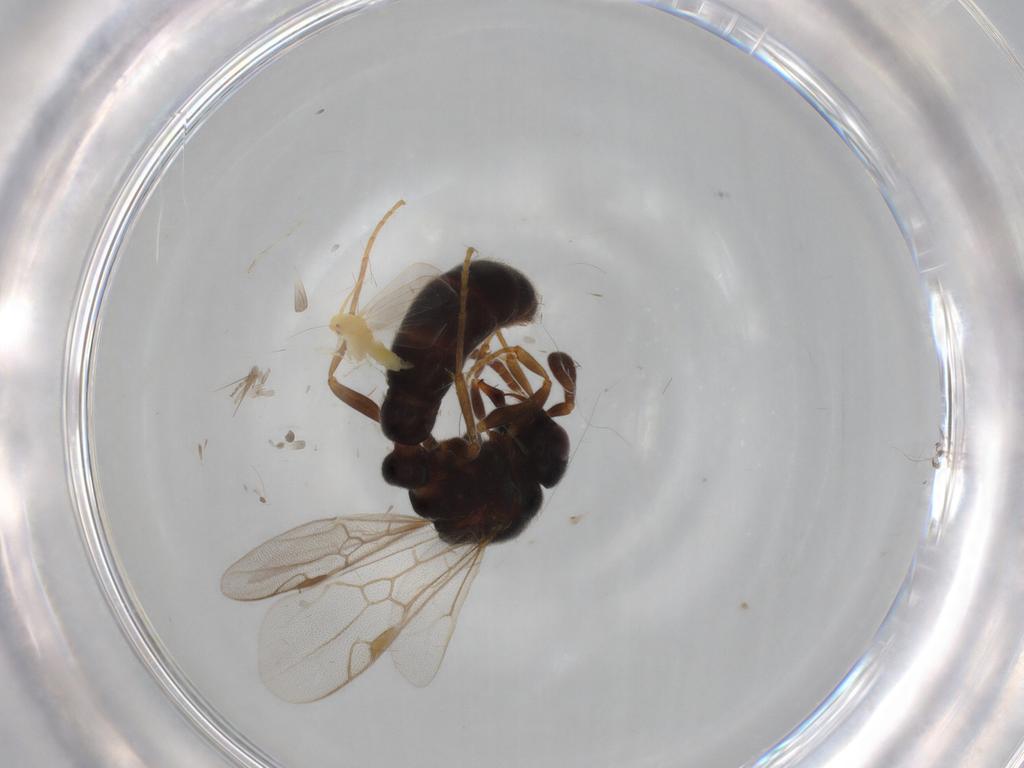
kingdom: Animalia
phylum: Arthropoda
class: Insecta
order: Hymenoptera
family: Formicidae
